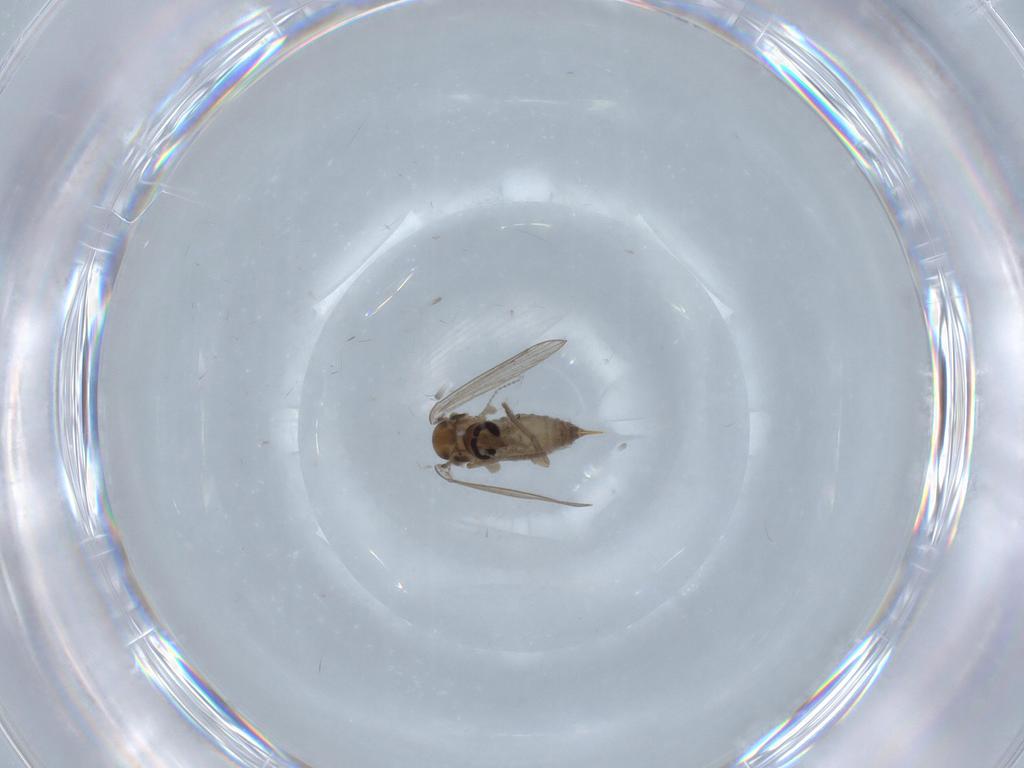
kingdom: Animalia
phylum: Arthropoda
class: Insecta
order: Diptera
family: Psychodidae
